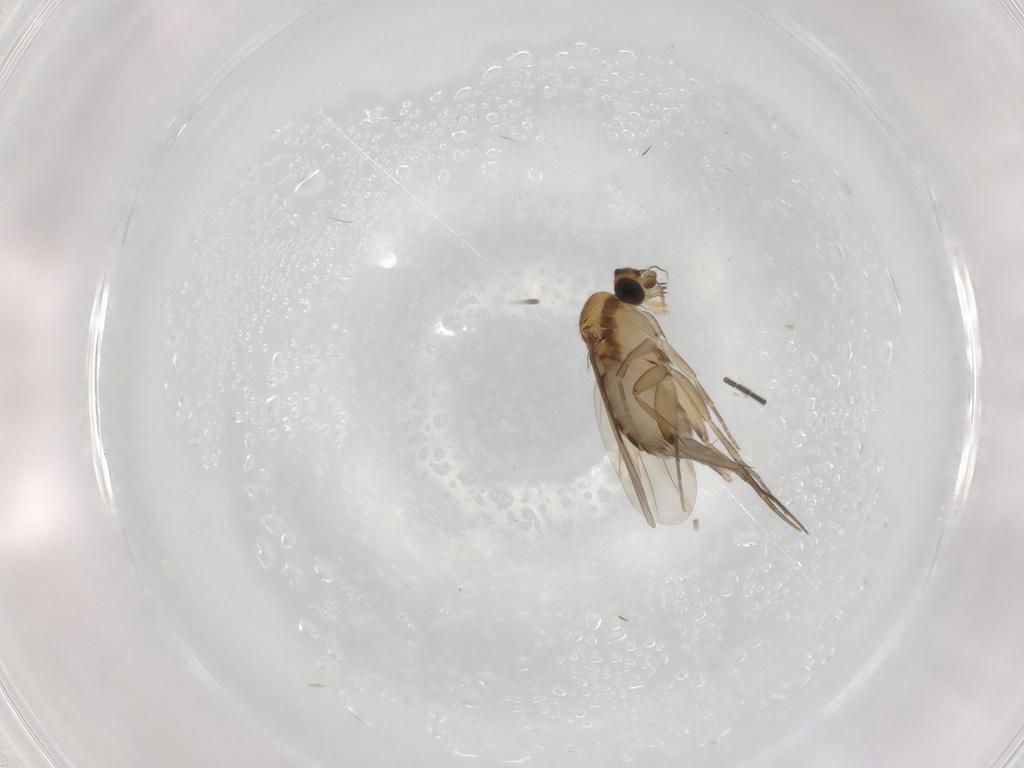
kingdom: Animalia
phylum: Arthropoda
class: Insecta
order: Diptera
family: Phoridae
